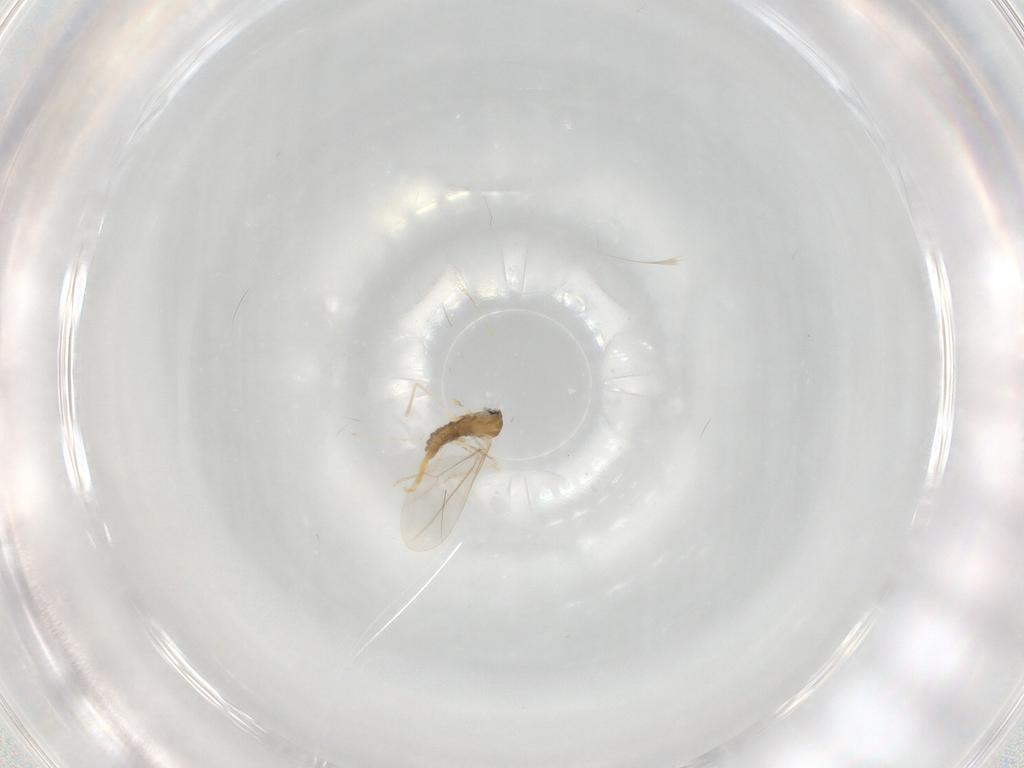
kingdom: Animalia
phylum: Arthropoda
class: Insecta
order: Diptera
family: Cecidomyiidae
